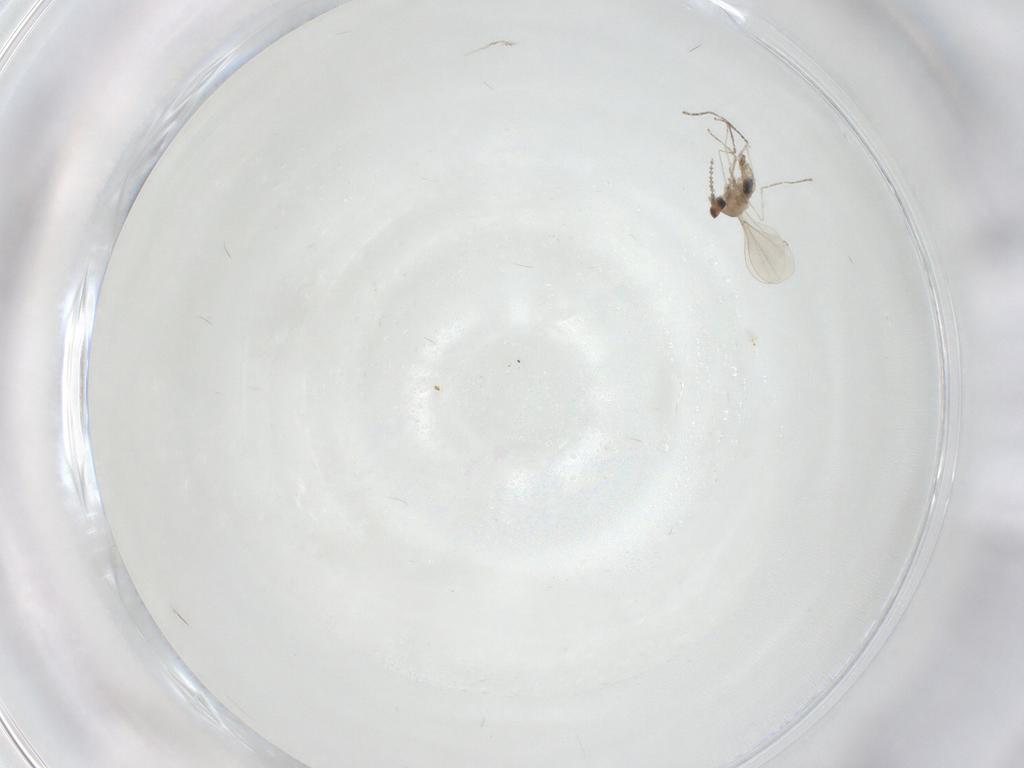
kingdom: Animalia
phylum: Arthropoda
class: Insecta
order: Diptera
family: Cecidomyiidae
